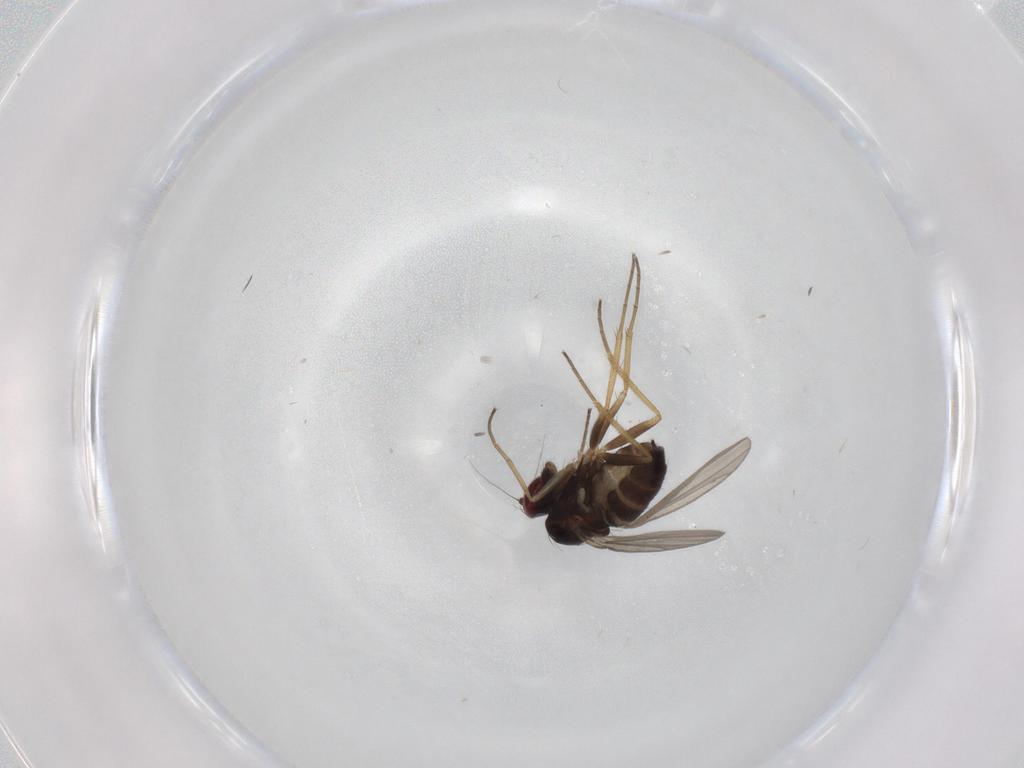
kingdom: Animalia
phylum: Arthropoda
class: Insecta
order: Diptera
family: Dolichopodidae
